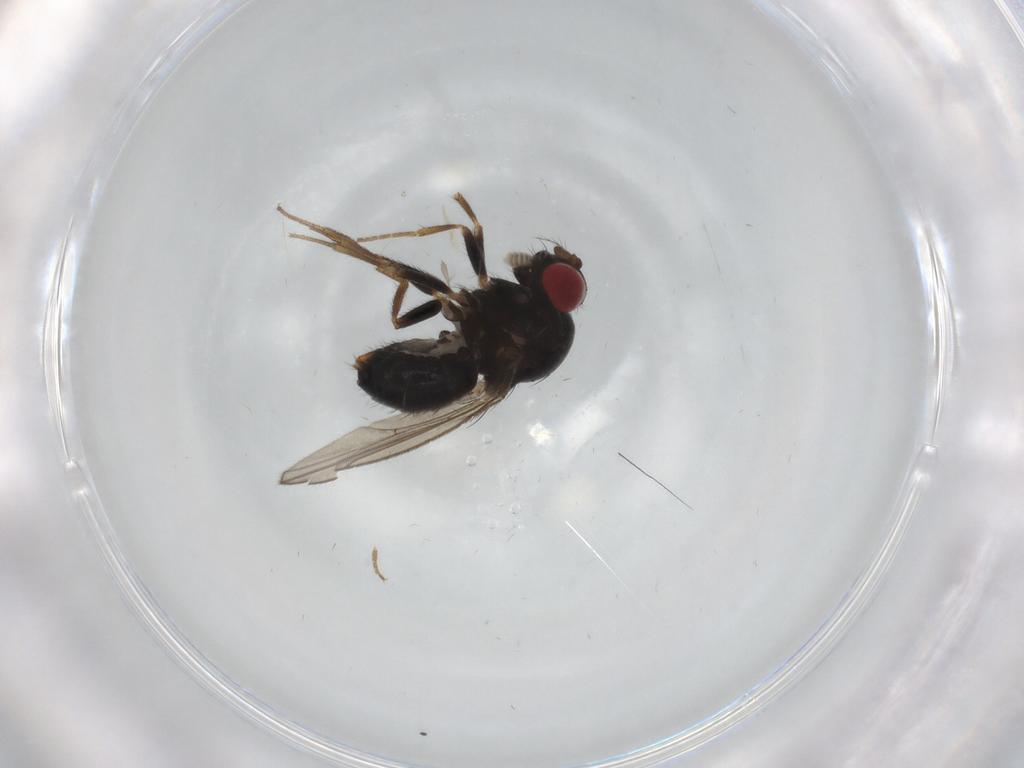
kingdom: Animalia
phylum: Arthropoda
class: Insecta
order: Diptera
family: Drosophilidae
